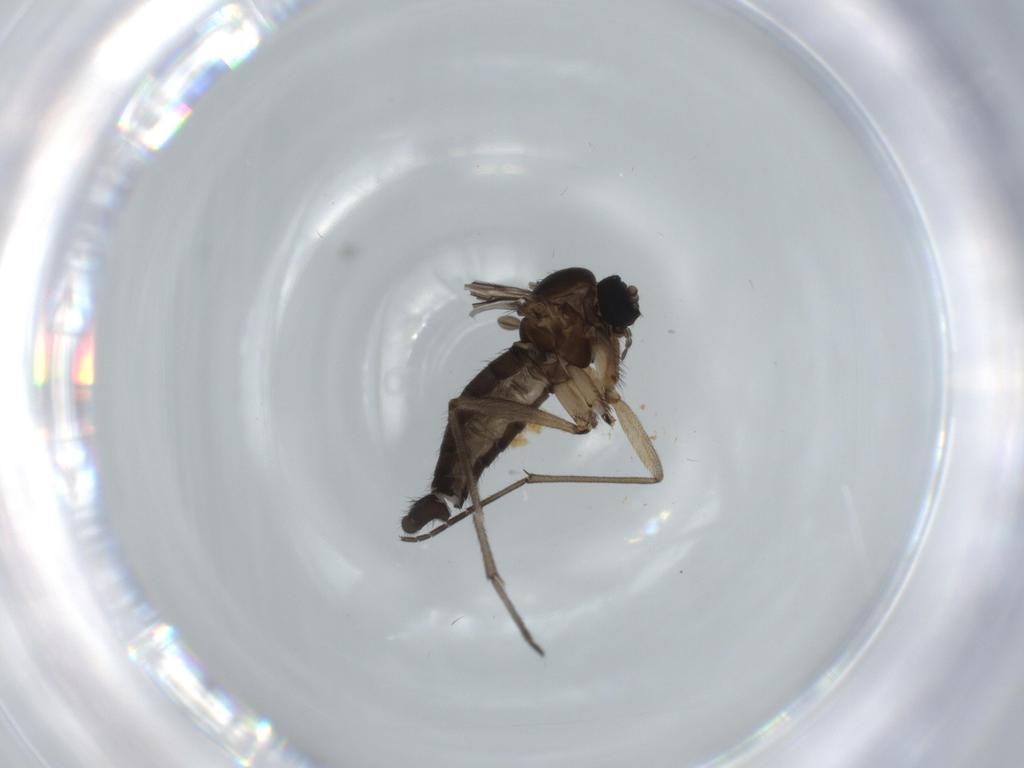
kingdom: Animalia
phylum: Arthropoda
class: Insecta
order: Diptera
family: Sciaridae
